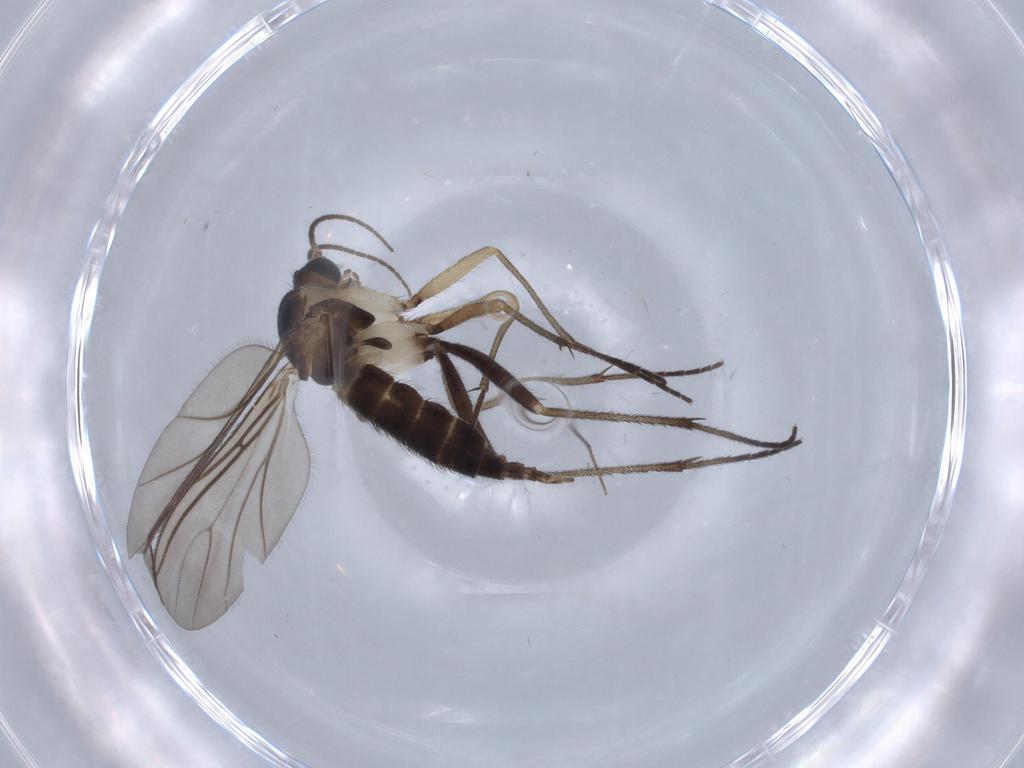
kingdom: Animalia
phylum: Arthropoda
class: Insecta
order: Diptera
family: Sciaridae
